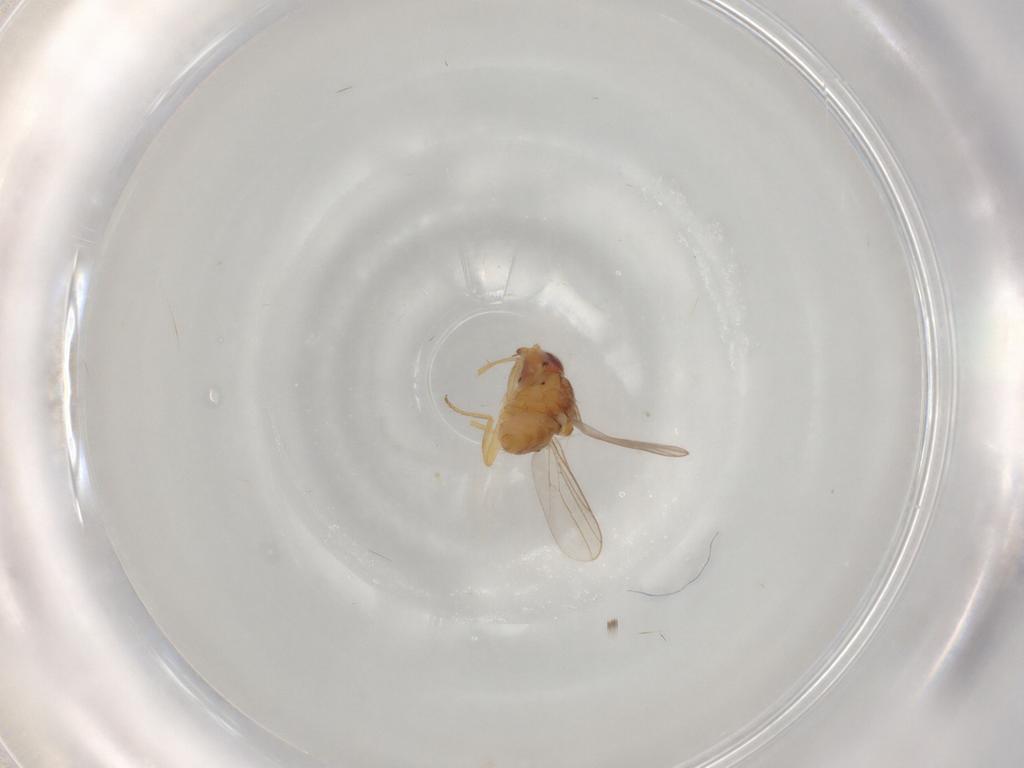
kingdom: Animalia
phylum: Arthropoda
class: Insecta
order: Diptera
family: Chloropidae
